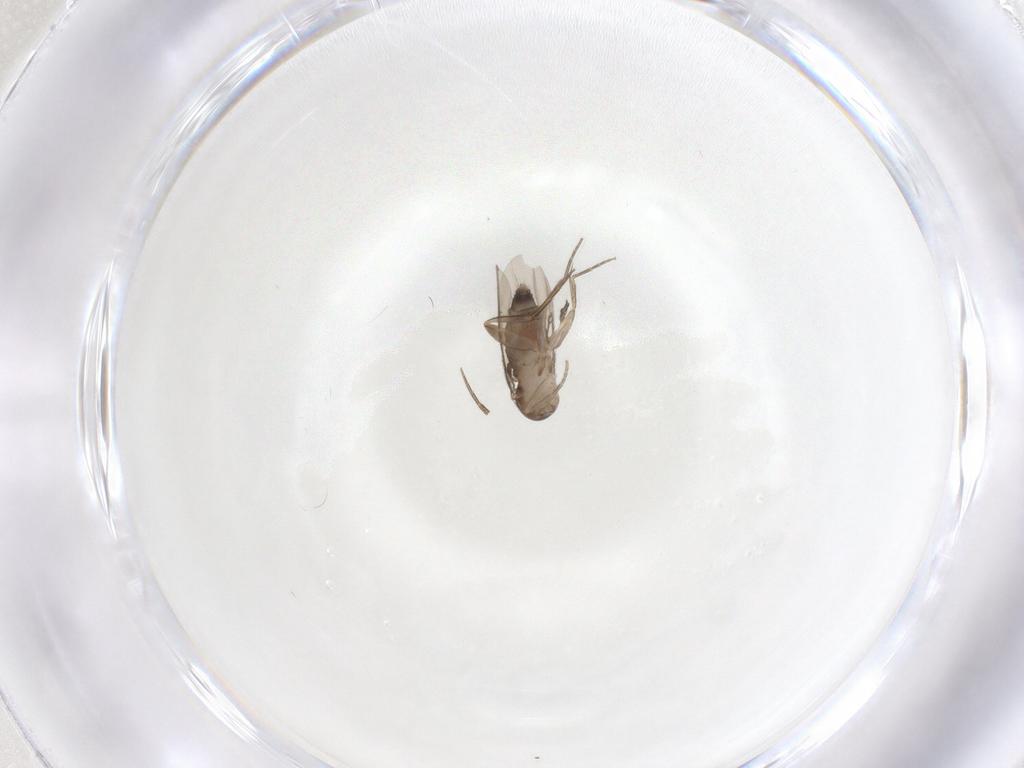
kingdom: Animalia
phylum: Arthropoda
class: Insecta
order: Diptera
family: Phoridae
